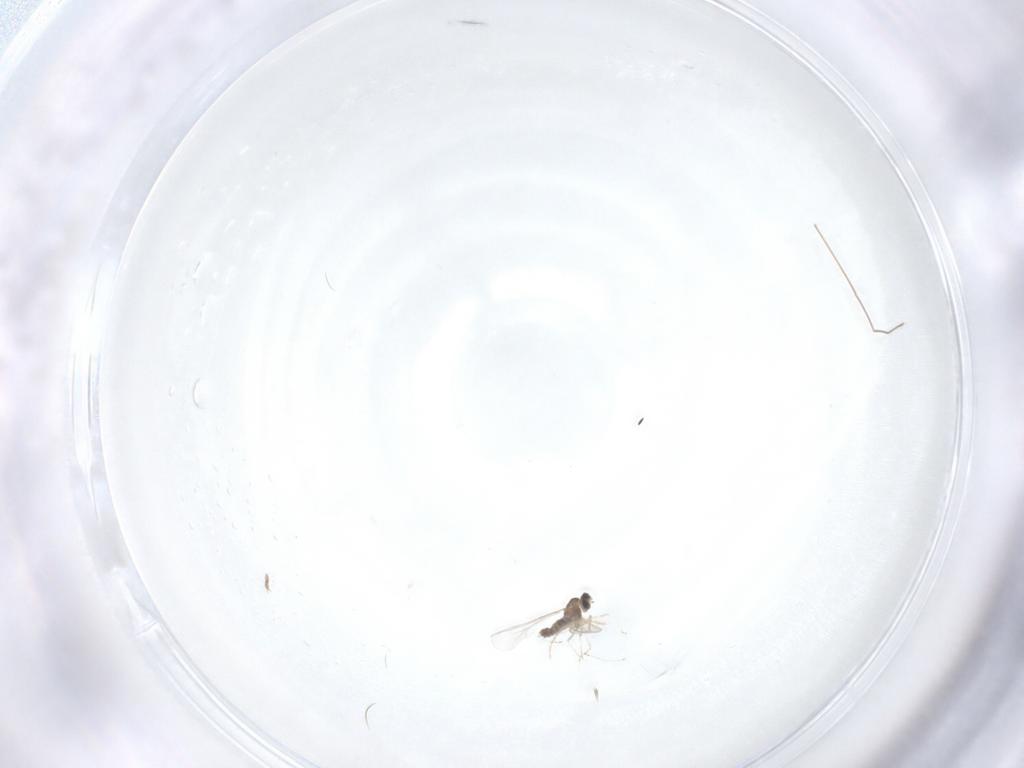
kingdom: Animalia
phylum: Arthropoda
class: Insecta
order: Diptera
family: Chironomidae
